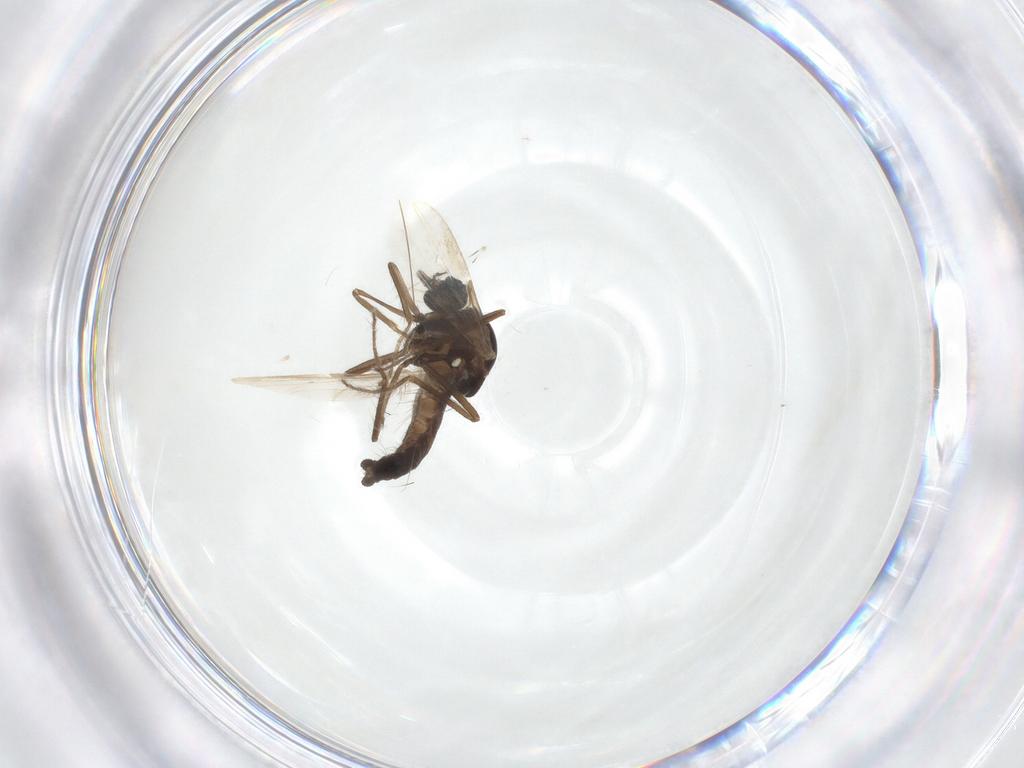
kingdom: Animalia
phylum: Arthropoda
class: Insecta
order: Diptera
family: Ceratopogonidae
